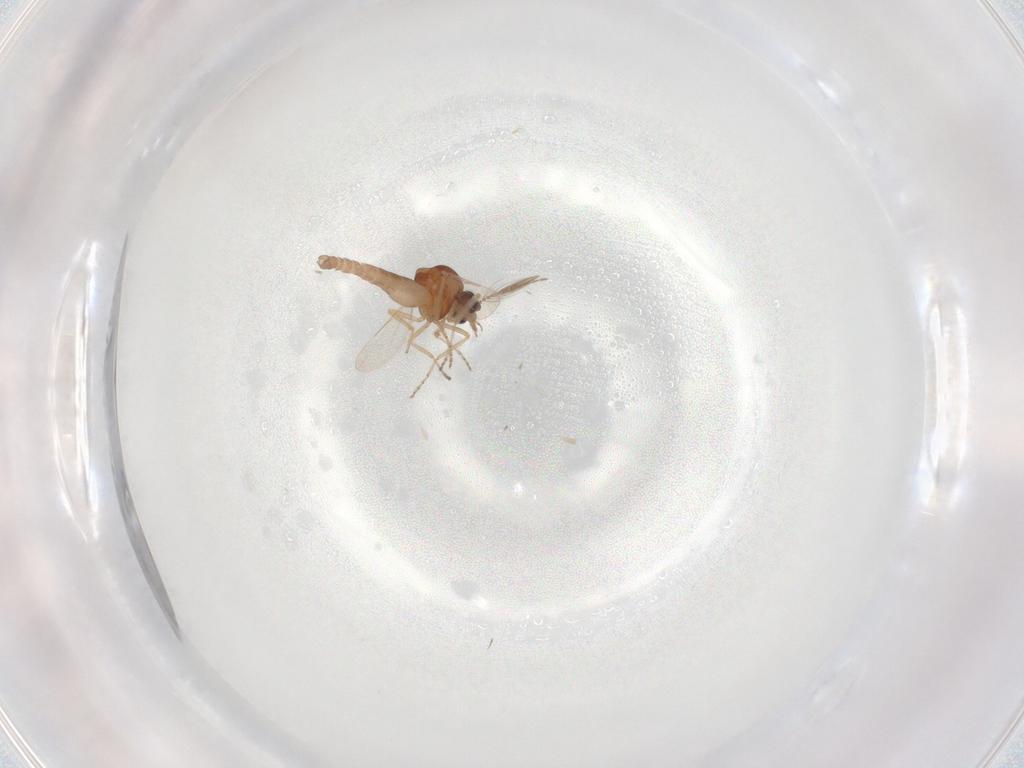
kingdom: Animalia
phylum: Arthropoda
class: Insecta
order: Diptera
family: Ceratopogonidae
